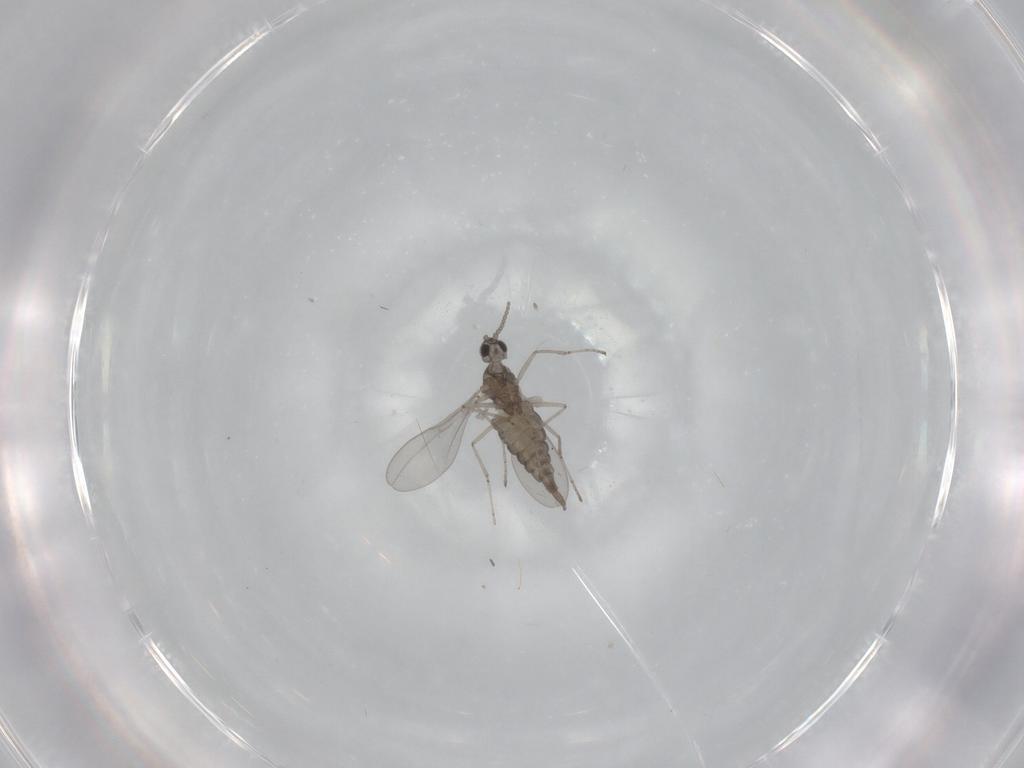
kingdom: Animalia
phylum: Arthropoda
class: Insecta
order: Diptera
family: Cecidomyiidae
